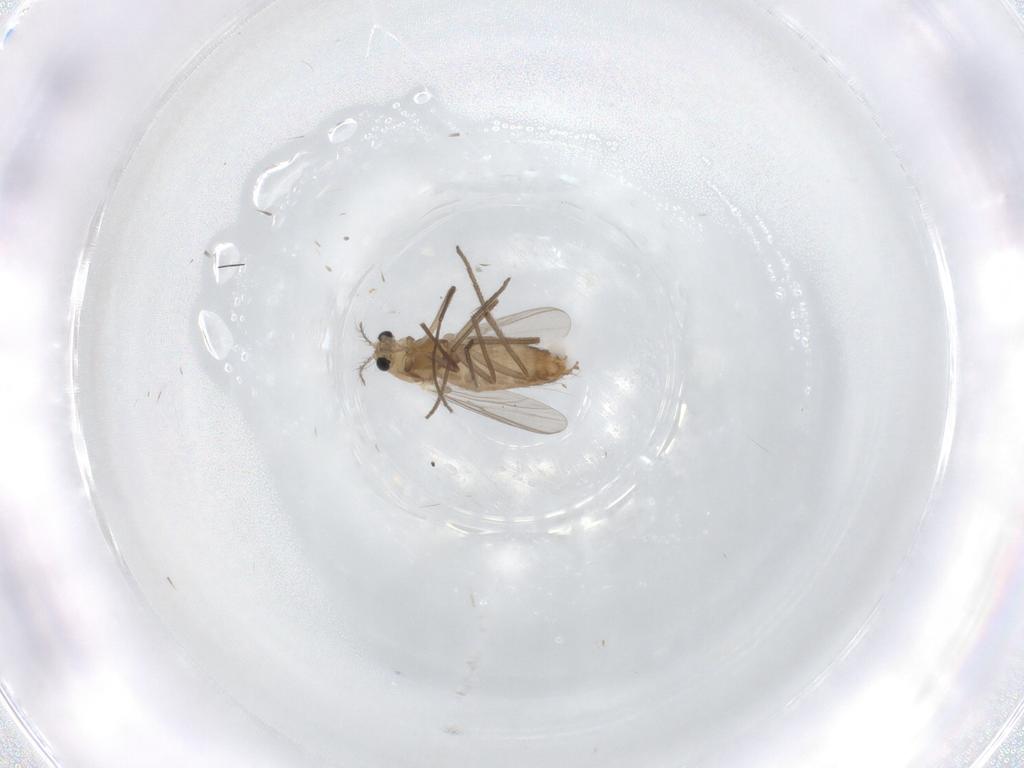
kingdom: Animalia
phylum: Arthropoda
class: Insecta
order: Diptera
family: Chironomidae
